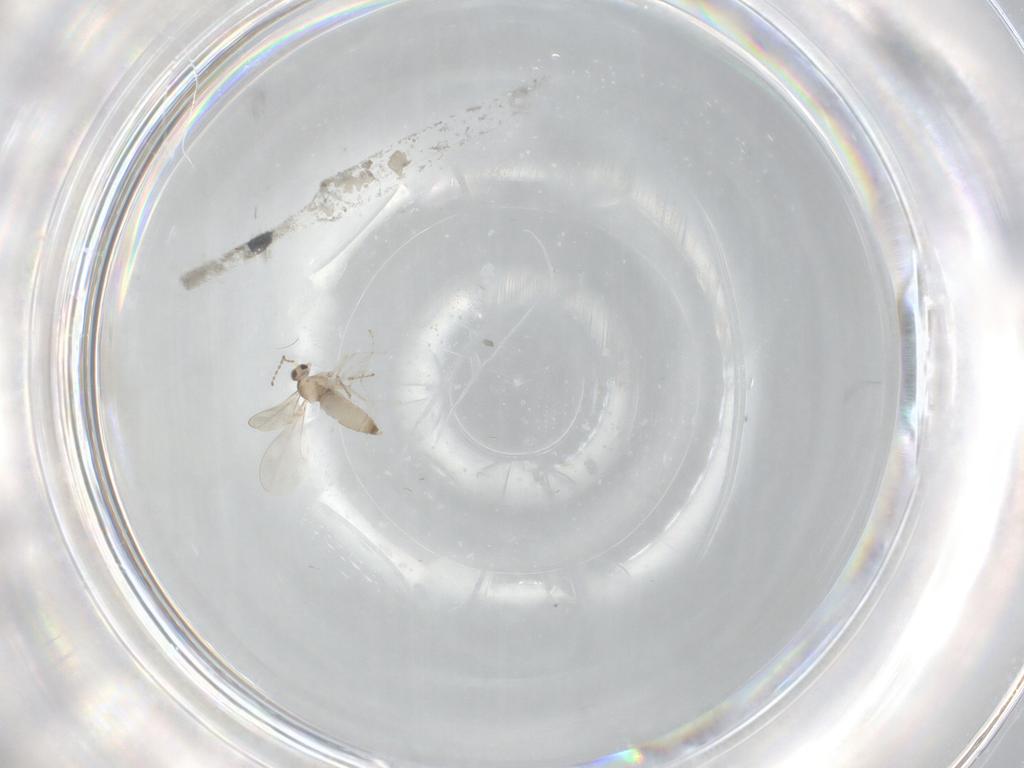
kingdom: Animalia
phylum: Arthropoda
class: Insecta
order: Diptera
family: Cecidomyiidae
